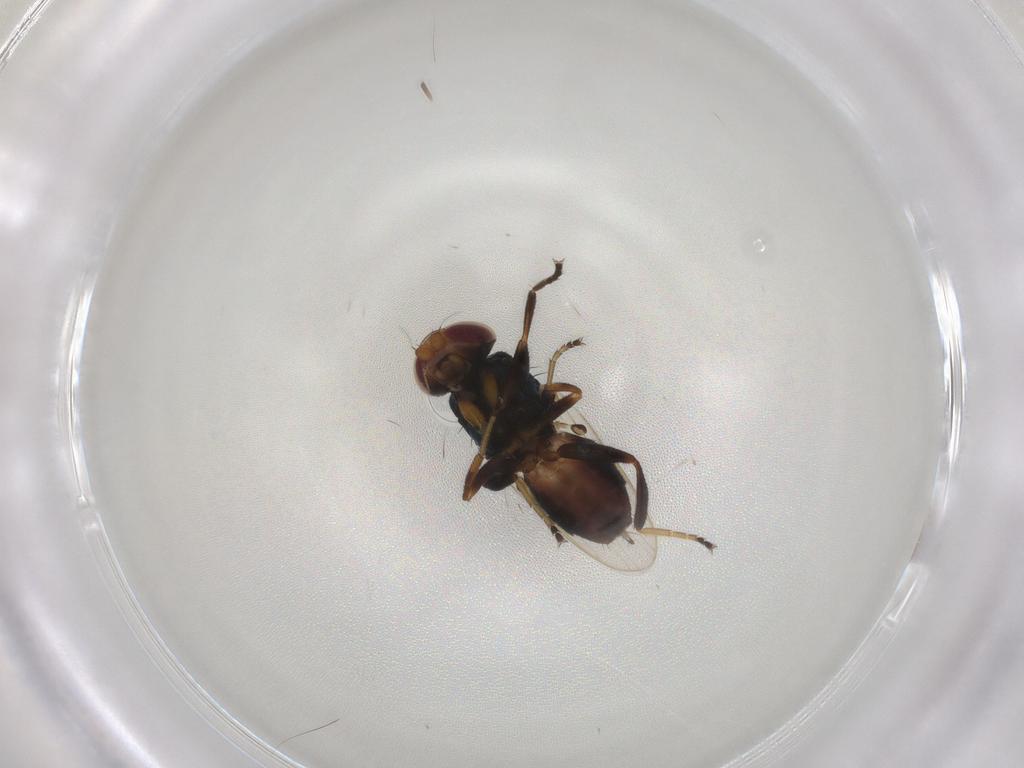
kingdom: Animalia
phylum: Arthropoda
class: Insecta
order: Diptera
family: Chloropidae
